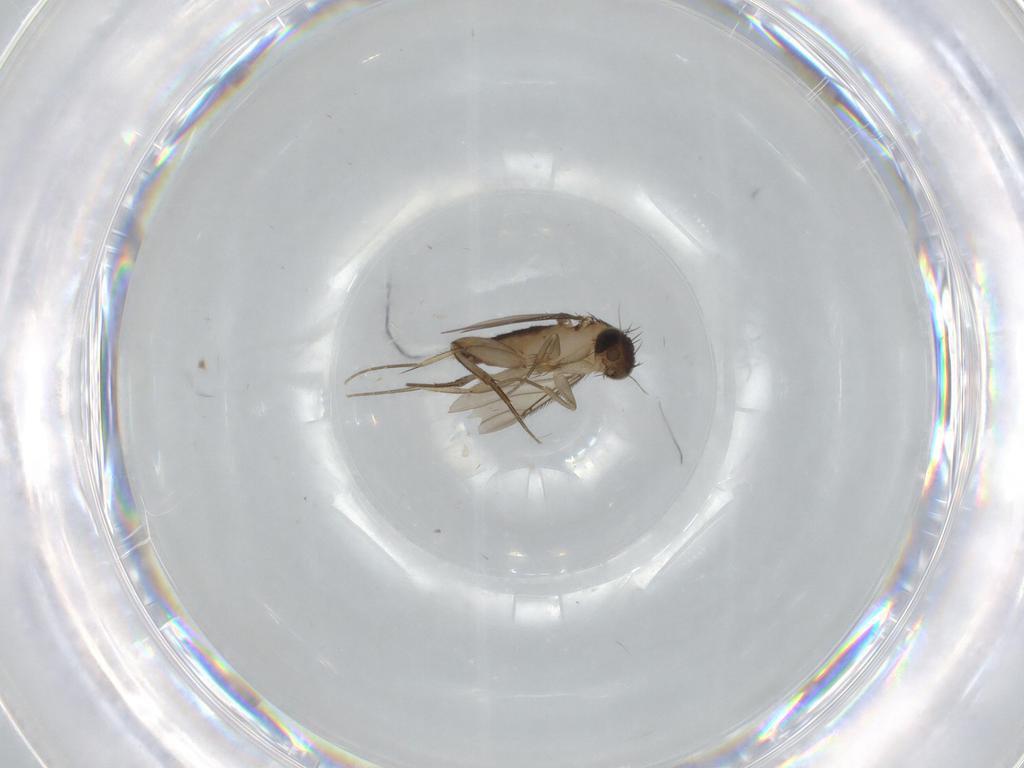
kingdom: Animalia
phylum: Arthropoda
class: Insecta
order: Diptera
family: Phoridae
